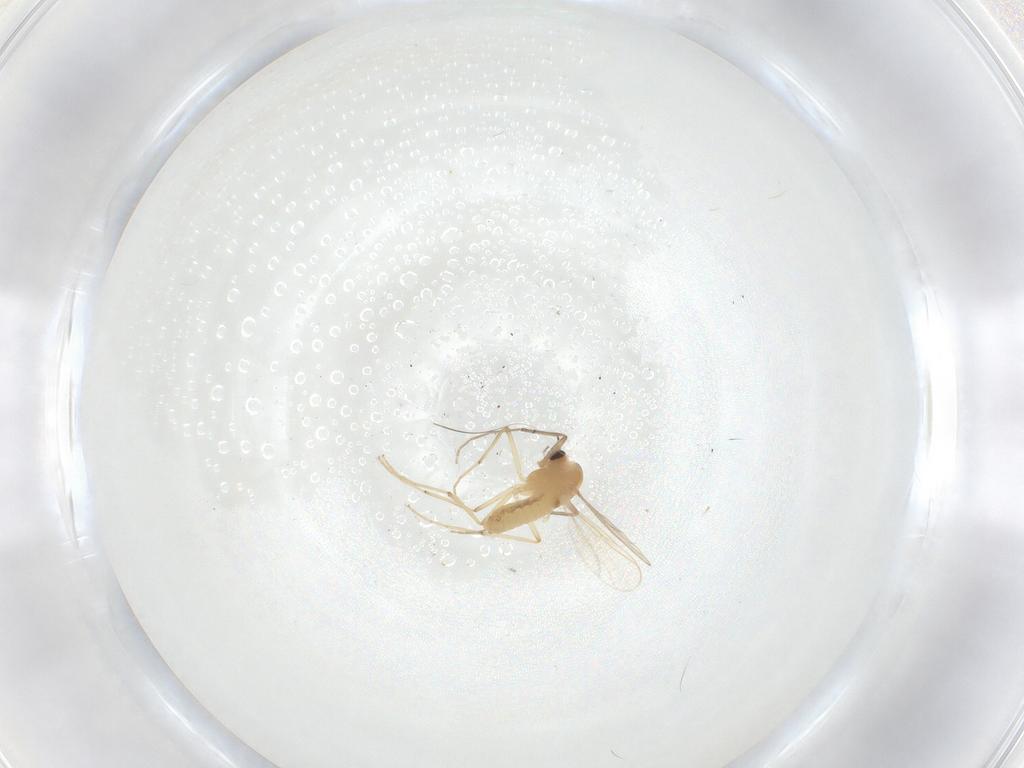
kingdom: Animalia
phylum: Arthropoda
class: Insecta
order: Diptera
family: Chironomidae
